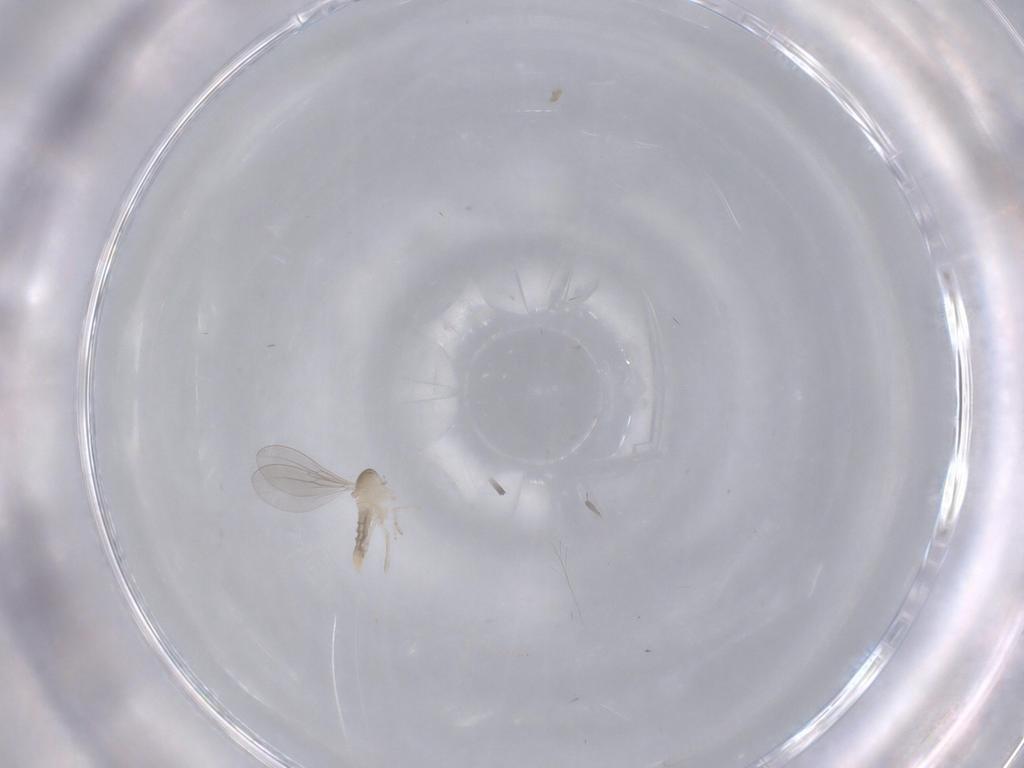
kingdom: Animalia
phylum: Arthropoda
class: Insecta
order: Diptera
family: Cecidomyiidae
